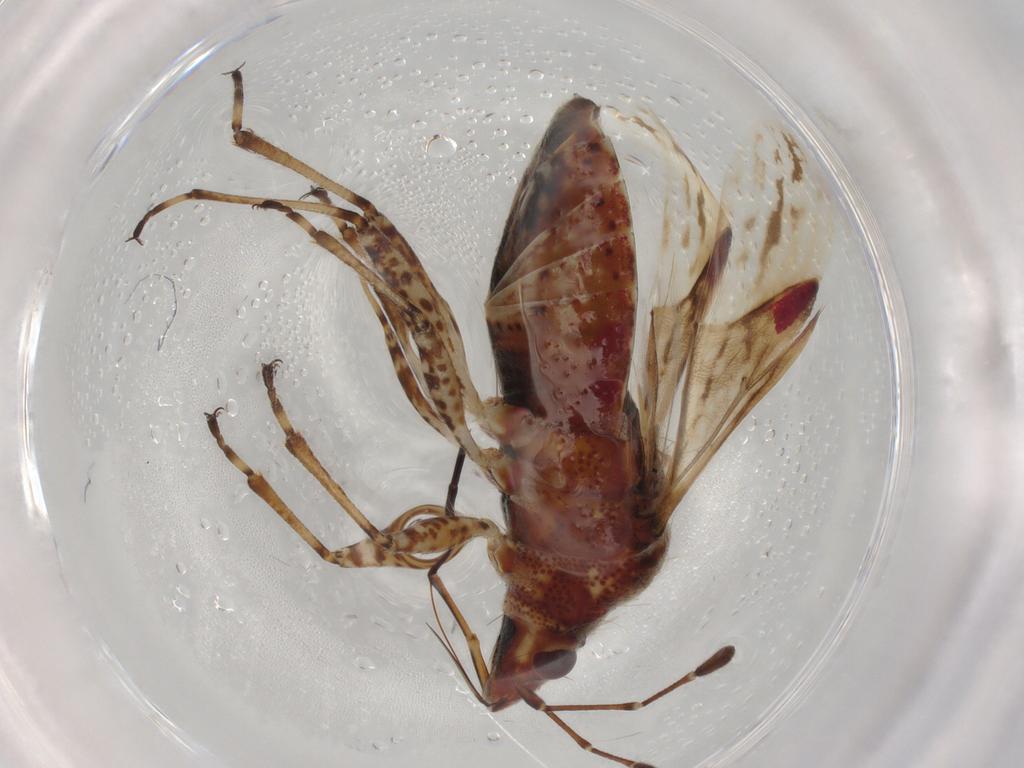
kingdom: Animalia
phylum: Arthropoda
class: Insecta
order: Hemiptera
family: Lygaeidae
